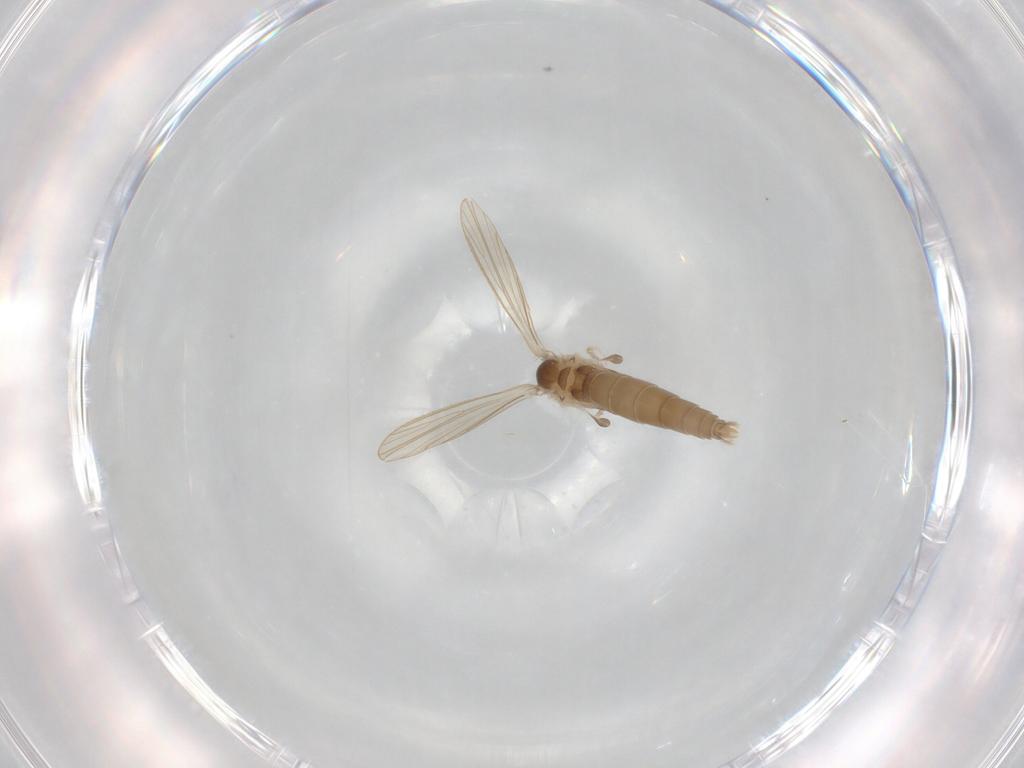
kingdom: Animalia
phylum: Arthropoda
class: Insecta
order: Diptera
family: Psychodidae
